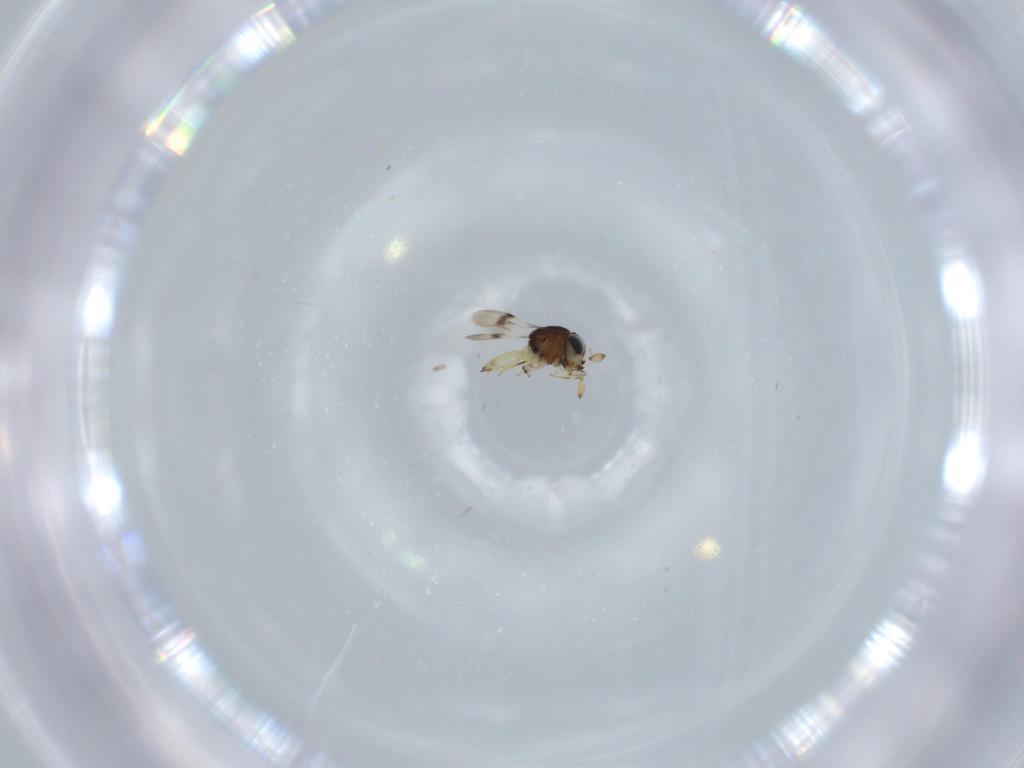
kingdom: Animalia
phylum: Arthropoda
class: Insecta
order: Hymenoptera
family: Scelionidae
